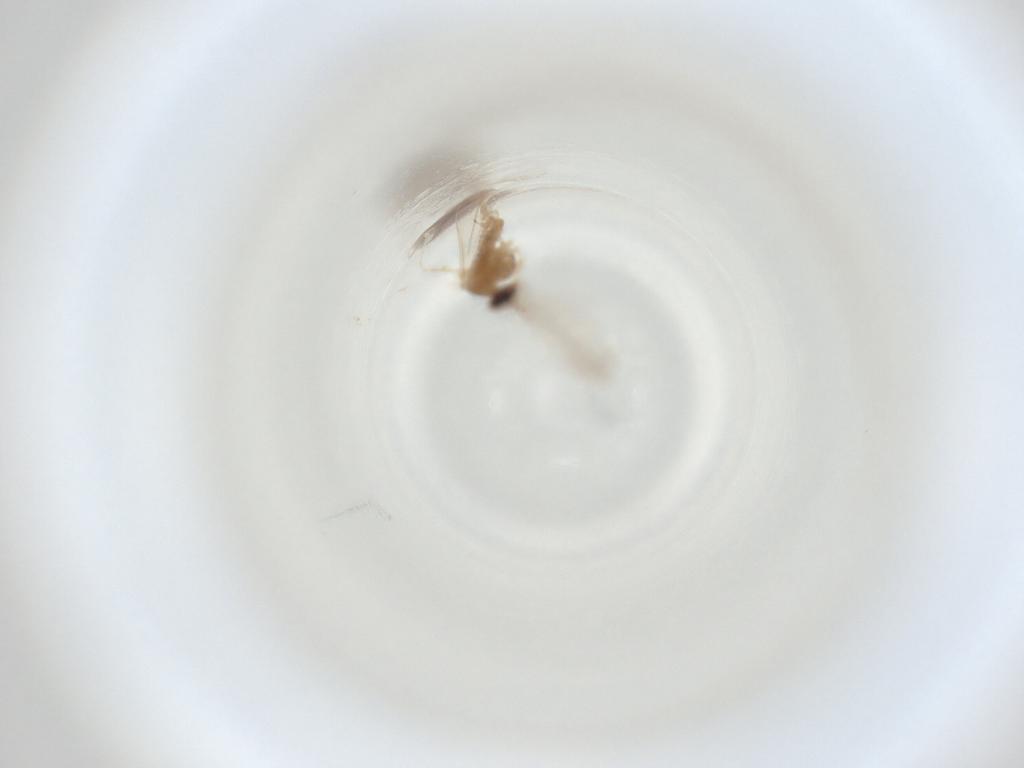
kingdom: Animalia
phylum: Arthropoda
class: Insecta
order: Diptera
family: Cecidomyiidae
